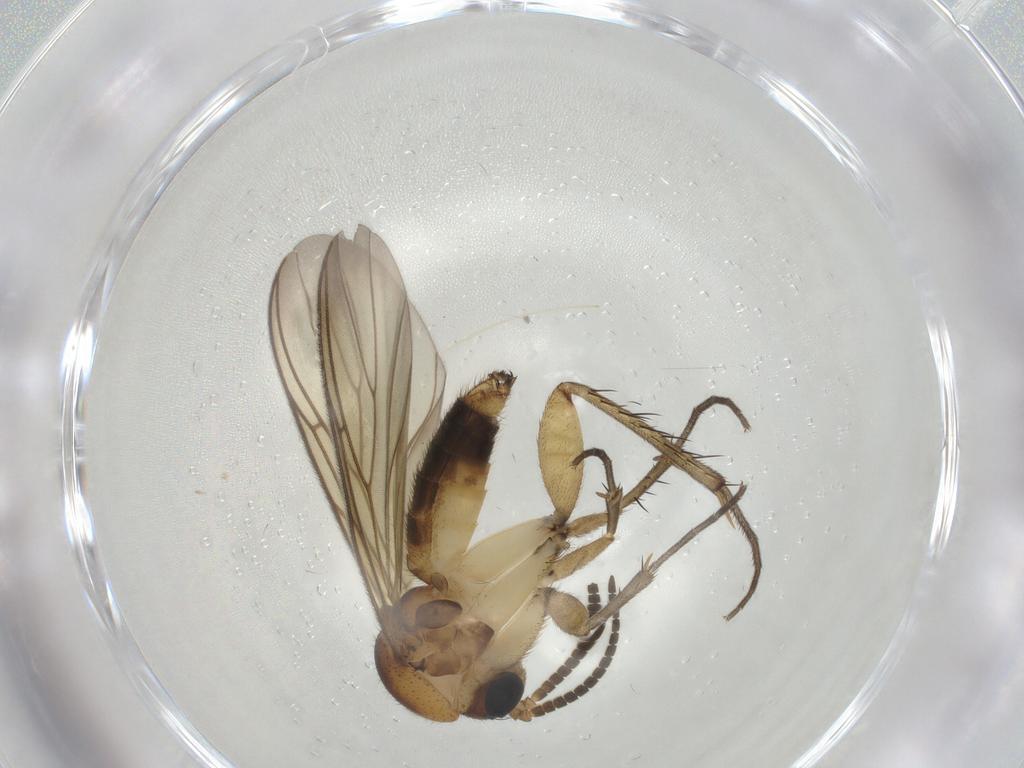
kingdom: Animalia
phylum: Arthropoda
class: Insecta
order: Diptera
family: Mycetophilidae
